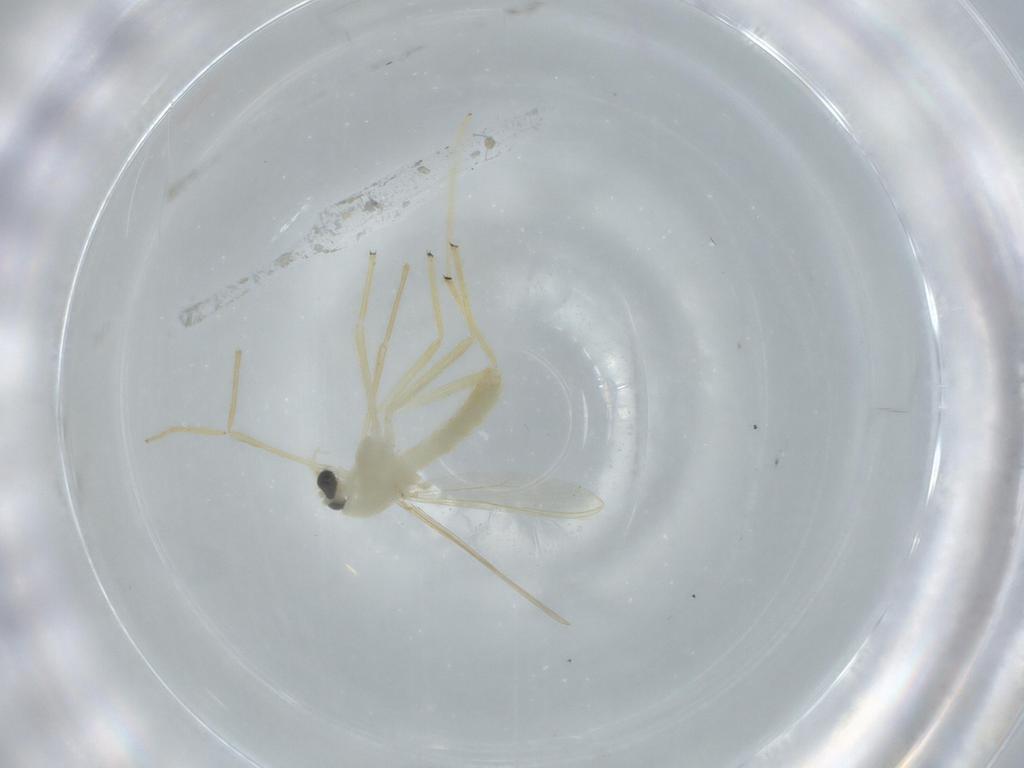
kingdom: Animalia
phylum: Arthropoda
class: Insecta
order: Diptera
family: Chironomidae
